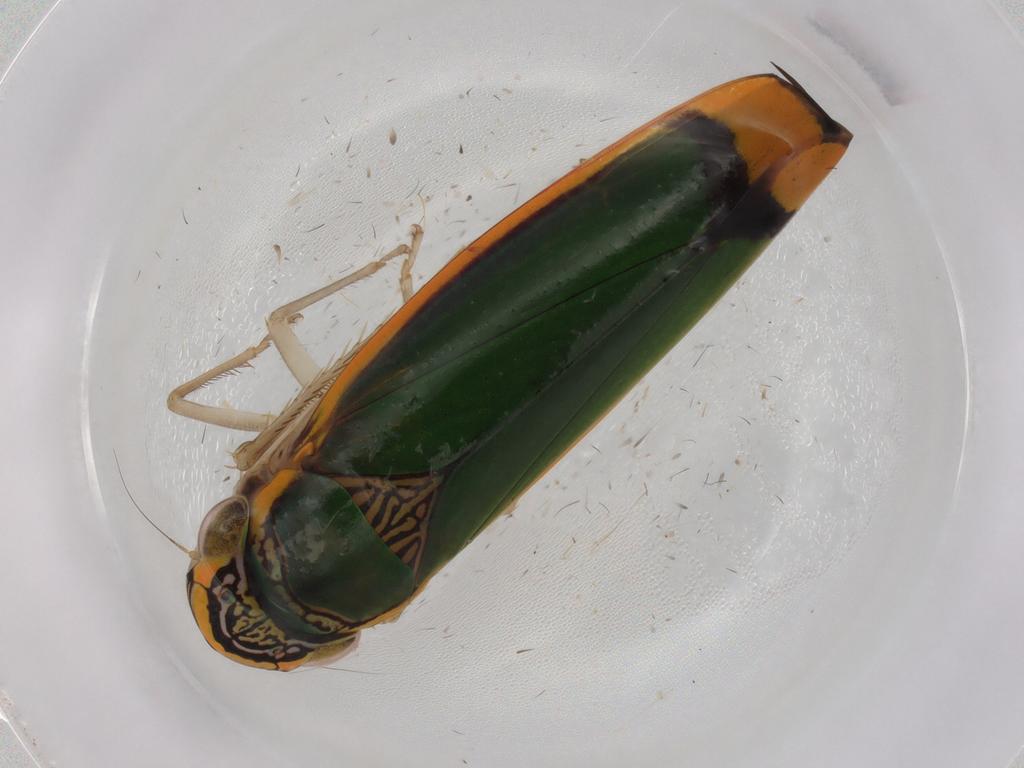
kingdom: Animalia
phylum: Arthropoda
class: Insecta
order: Hemiptera
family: Cicadellidae
